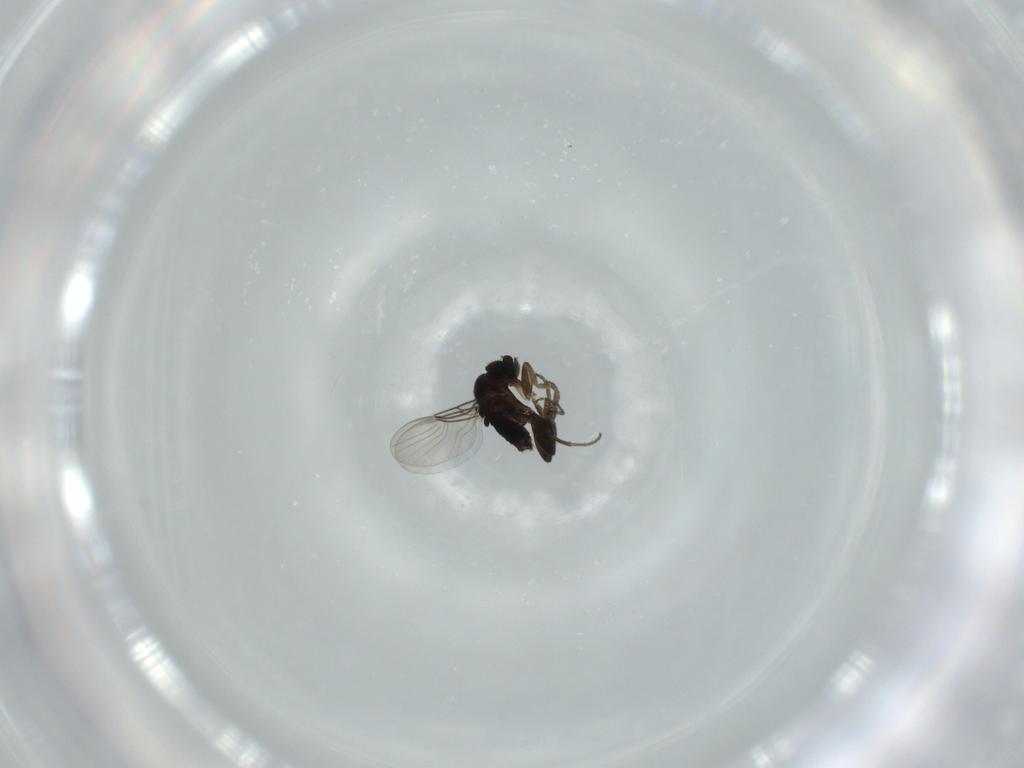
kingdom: Animalia
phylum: Arthropoda
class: Insecta
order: Diptera
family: Phoridae
